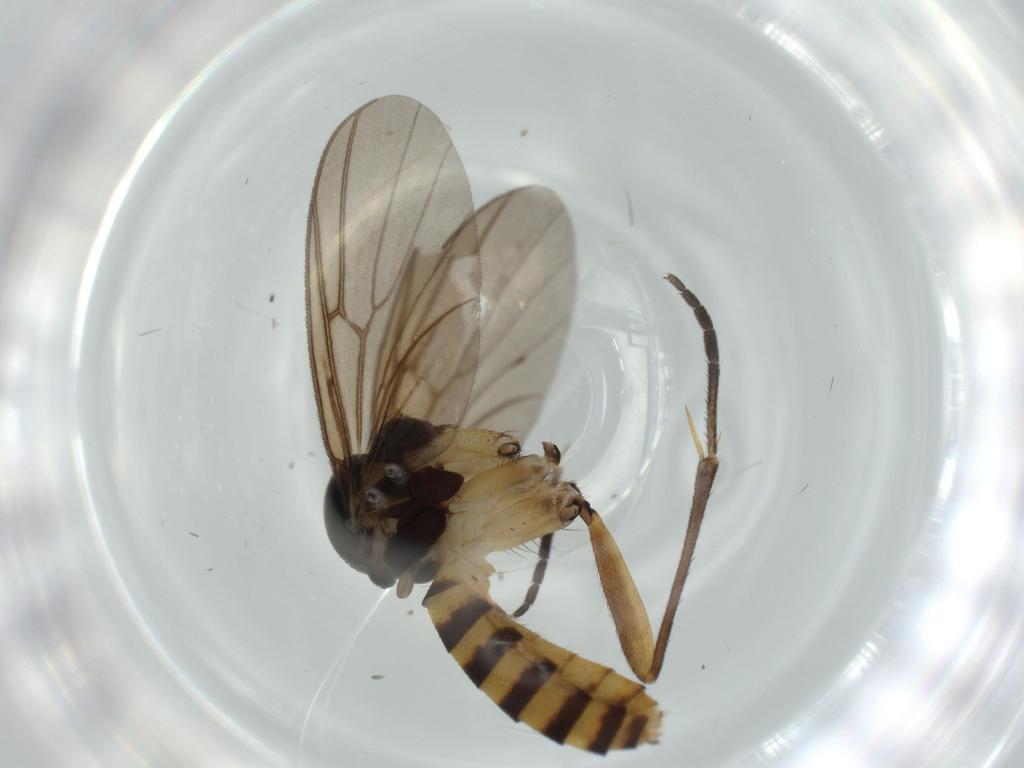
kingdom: Animalia
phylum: Arthropoda
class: Insecta
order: Diptera
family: Mycetophilidae
